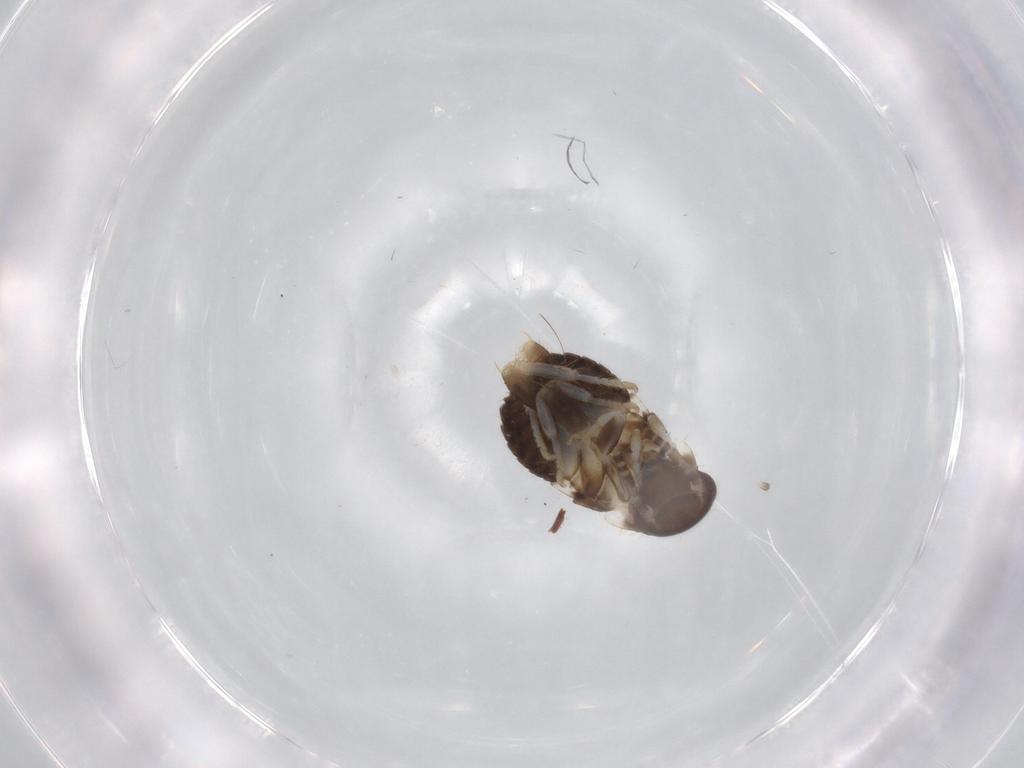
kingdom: Animalia
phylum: Arthropoda
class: Insecta
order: Blattodea
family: Ectobiidae
